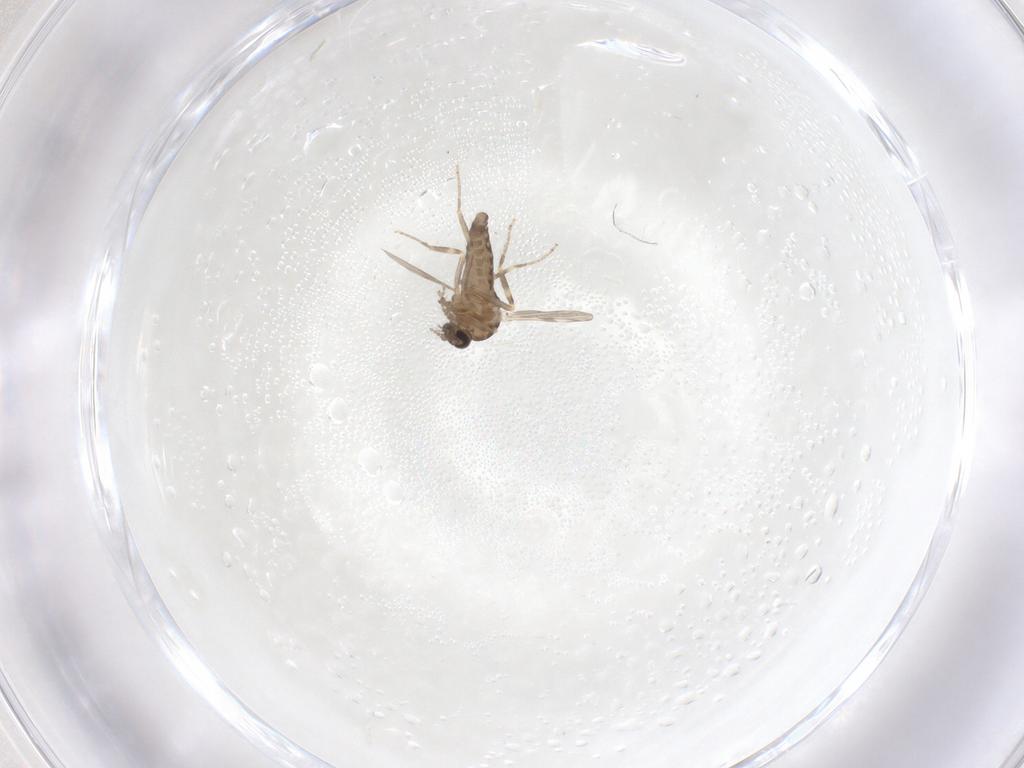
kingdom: Animalia
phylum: Arthropoda
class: Insecta
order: Diptera
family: Ceratopogonidae
